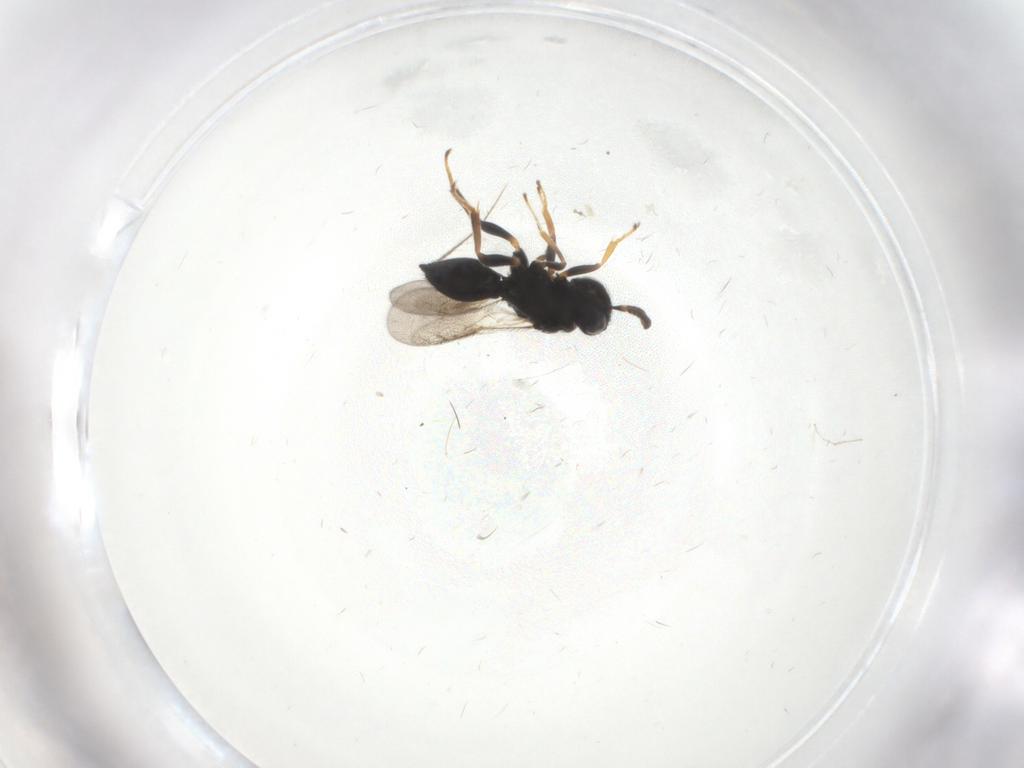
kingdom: Animalia
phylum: Arthropoda
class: Insecta
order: Hymenoptera
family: Pteromalidae
